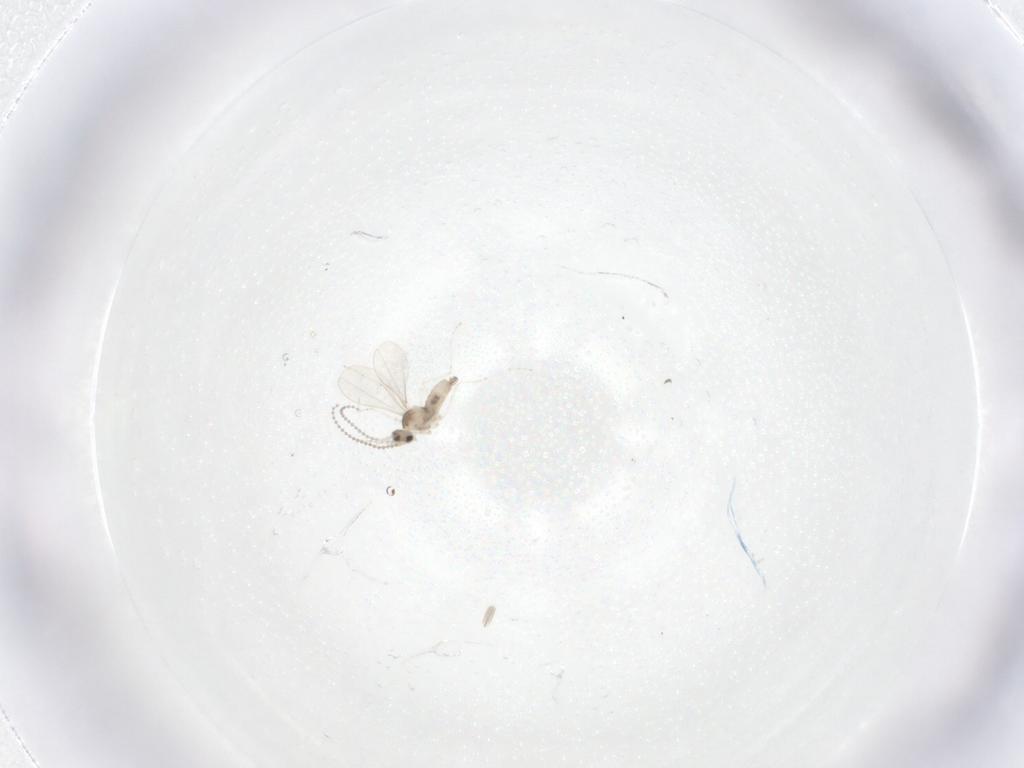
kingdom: Animalia
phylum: Arthropoda
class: Insecta
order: Diptera
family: Cecidomyiidae
